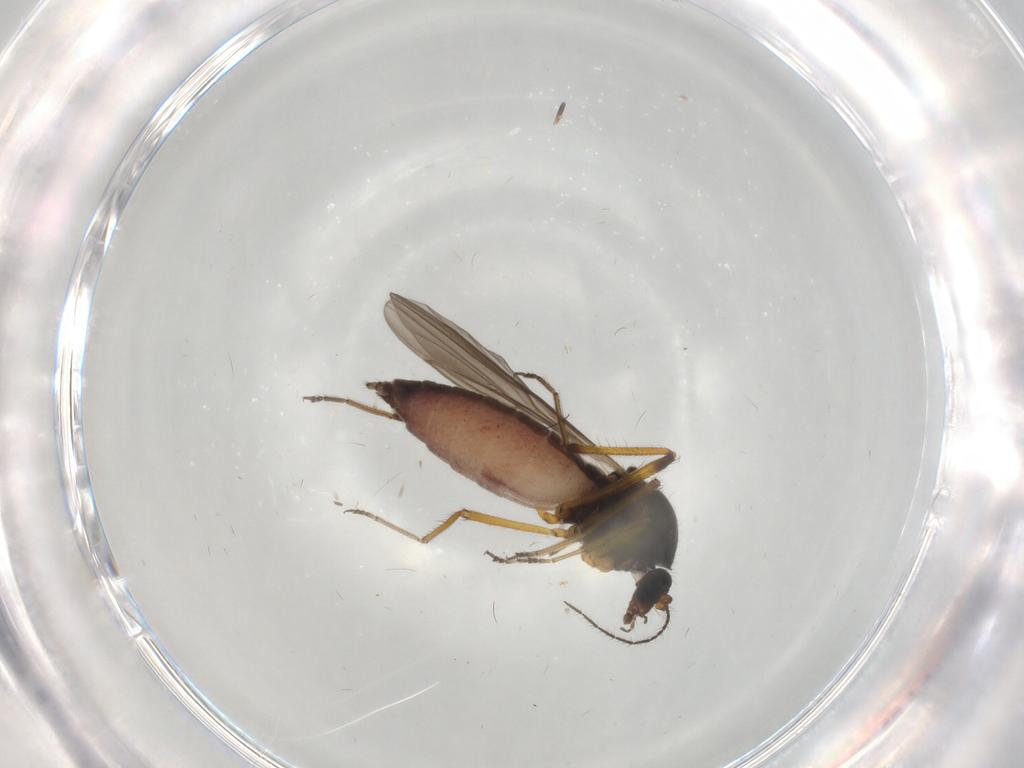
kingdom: Animalia
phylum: Arthropoda
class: Insecta
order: Diptera
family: Ceratopogonidae
